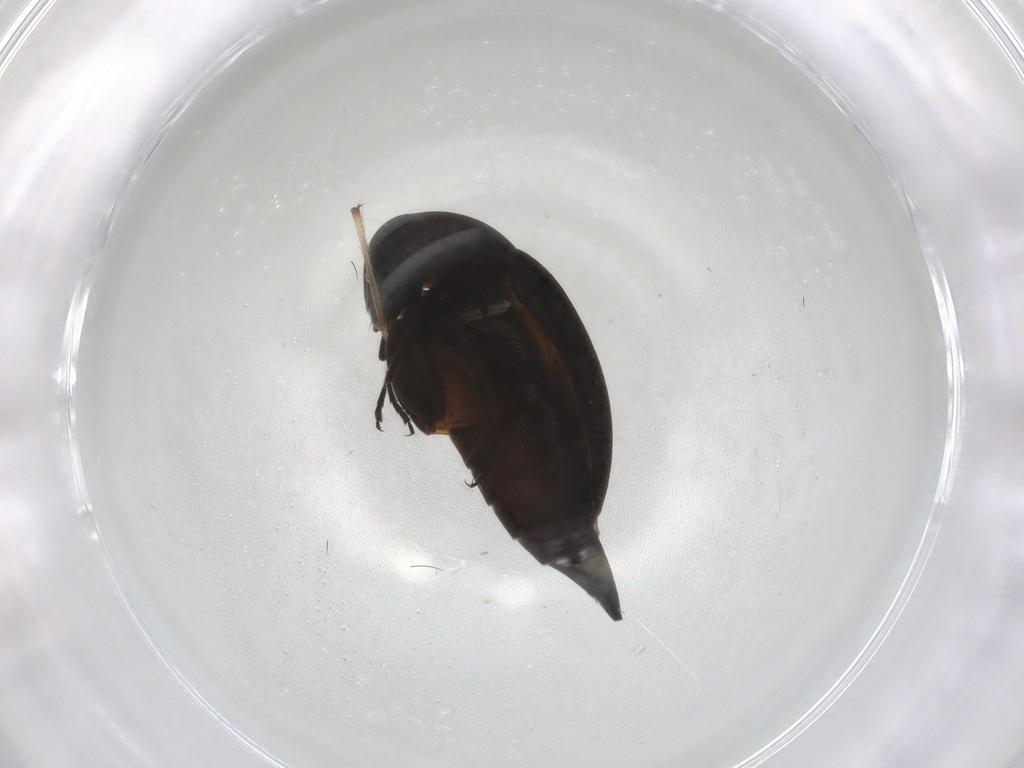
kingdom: Animalia
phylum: Arthropoda
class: Insecta
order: Coleoptera
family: Mordellidae
